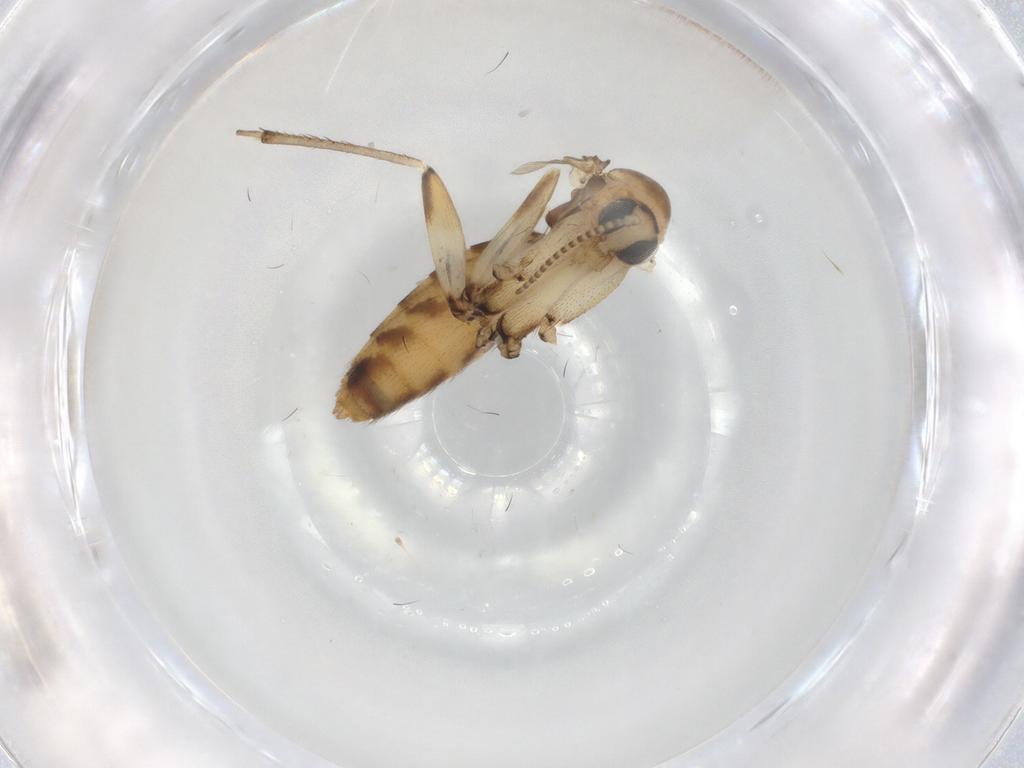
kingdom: Animalia
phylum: Arthropoda
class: Insecta
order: Diptera
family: Mycetophilidae
